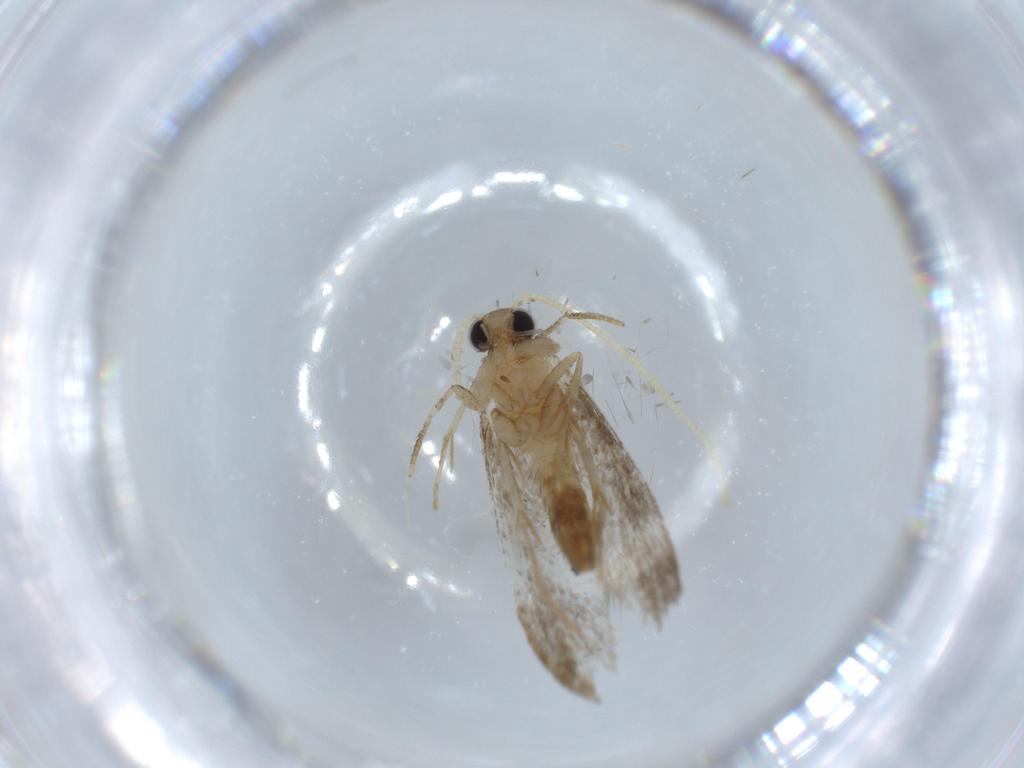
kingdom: Animalia
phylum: Arthropoda
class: Insecta
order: Lepidoptera
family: Tineidae
